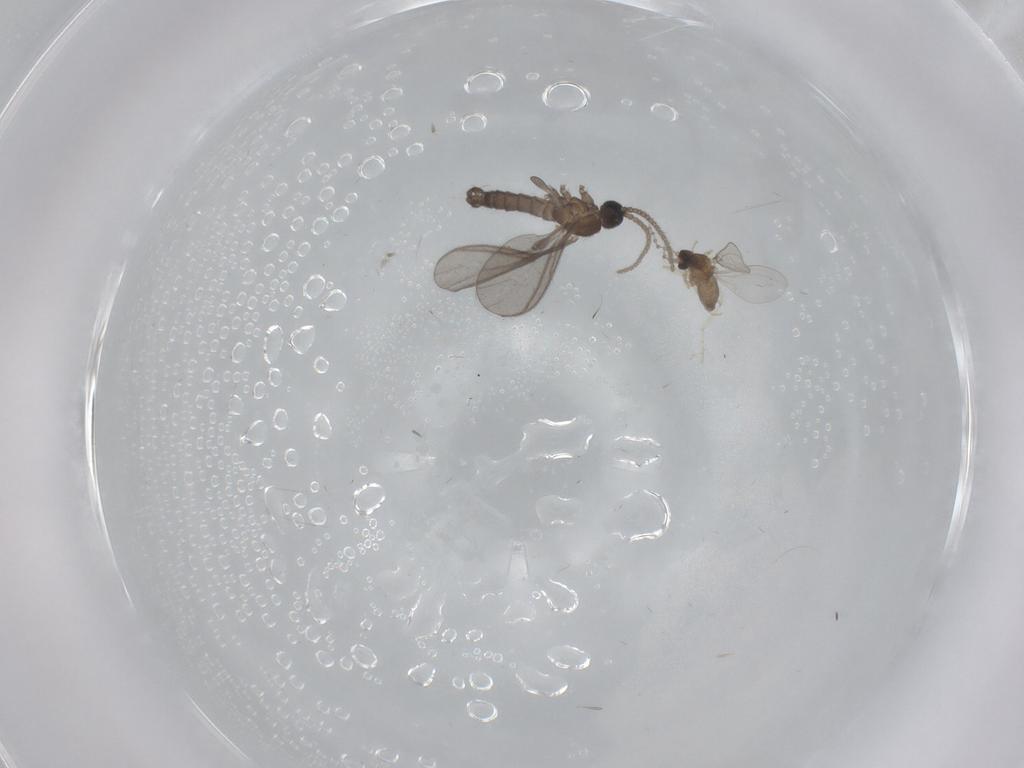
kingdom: Animalia
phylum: Arthropoda
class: Insecta
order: Diptera
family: Cecidomyiidae
